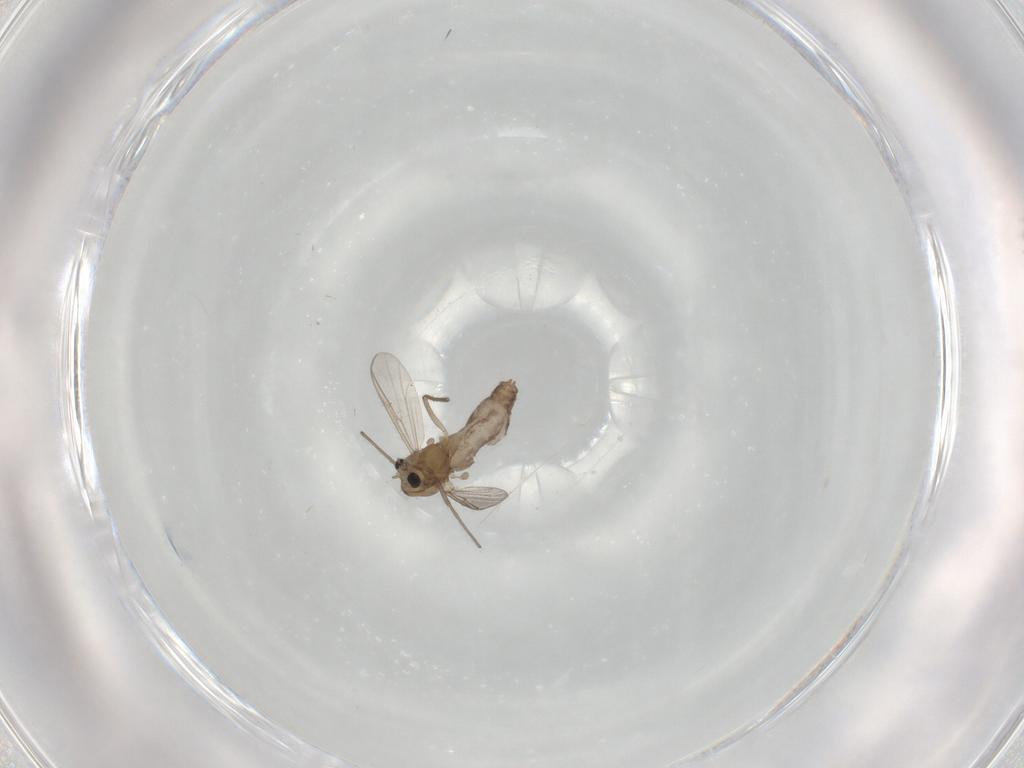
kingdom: Animalia
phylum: Arthropoda
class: Insecta
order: Diptera
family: Chironomidae
